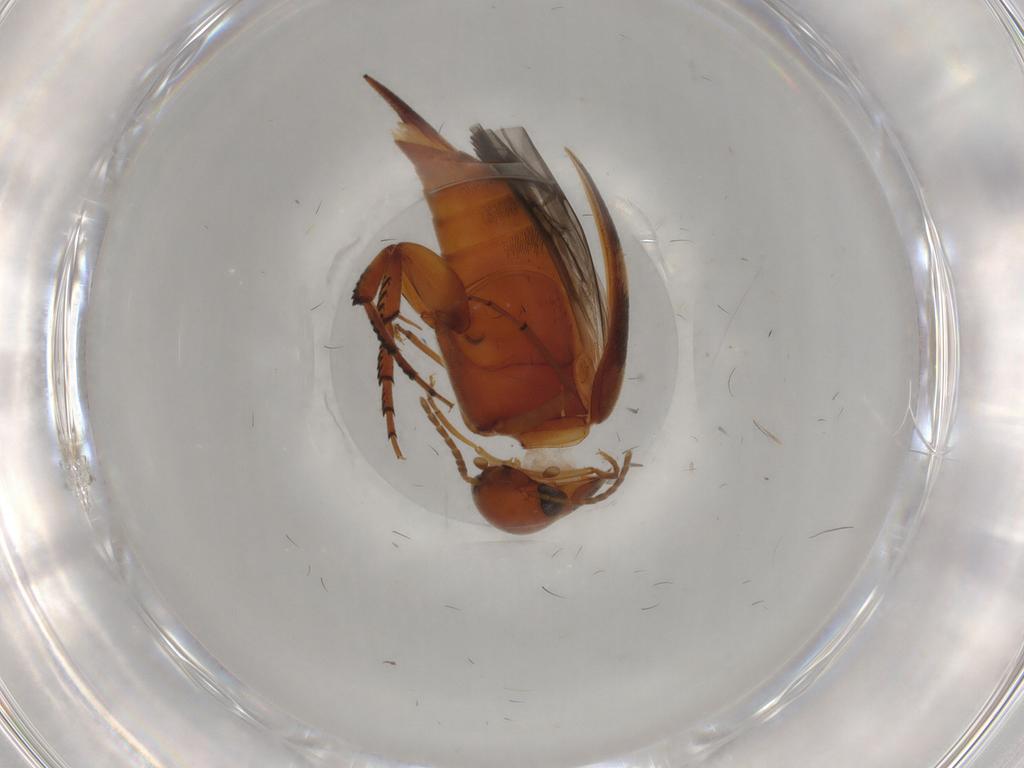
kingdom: Animalia
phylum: Arthropoda
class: Insecta
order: Coleoptera
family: Mordellidae
